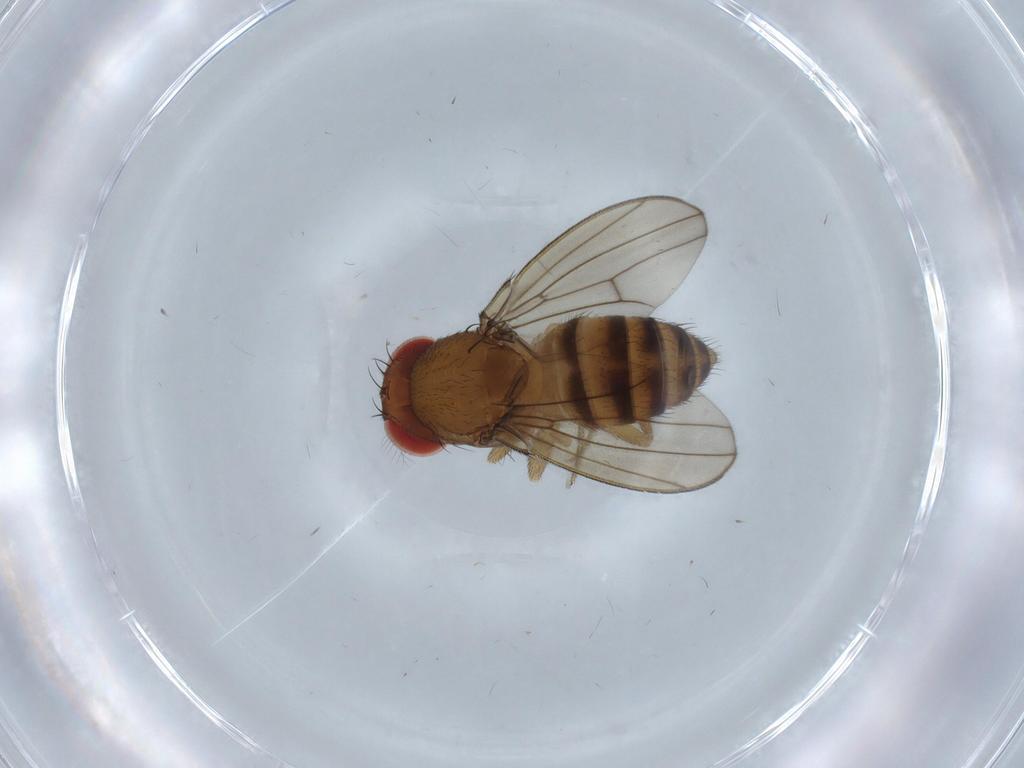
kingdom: Animalia
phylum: Arthropoda
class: Insecta
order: Diptera
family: Drosophilidae
